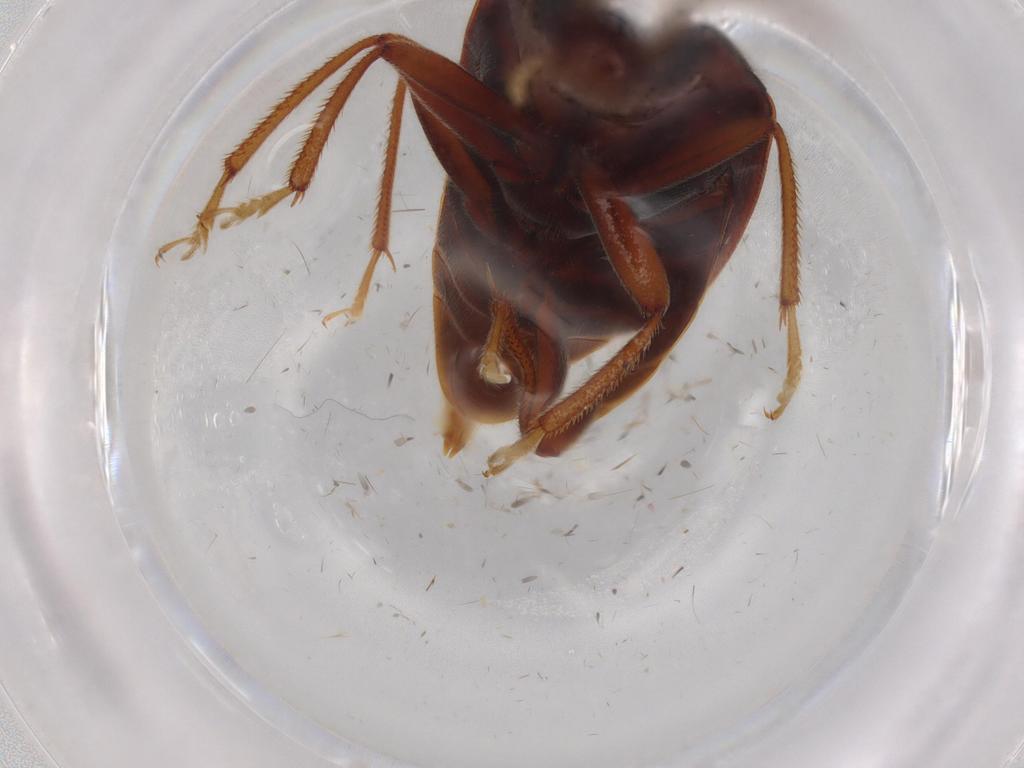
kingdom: Animalia
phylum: Arthropoda
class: Insecta
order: Coleoptera
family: Ptilodactylidae
